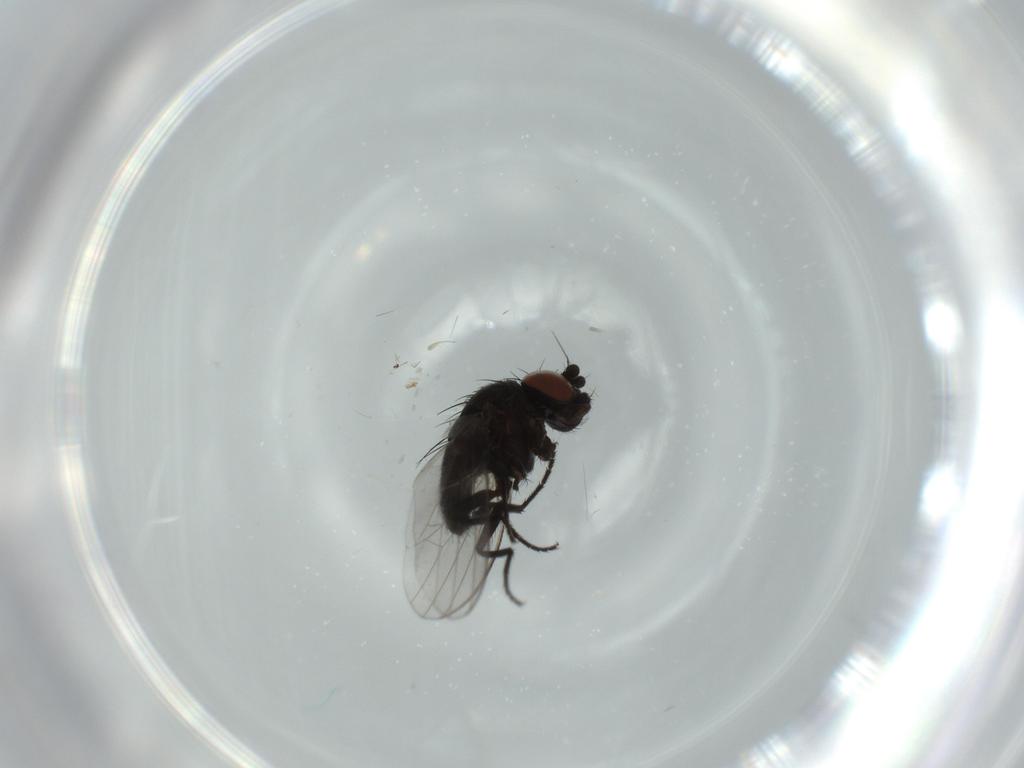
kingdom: Animalia
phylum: Arthropoda
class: Insecta
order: Diptera
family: Milichiidae
